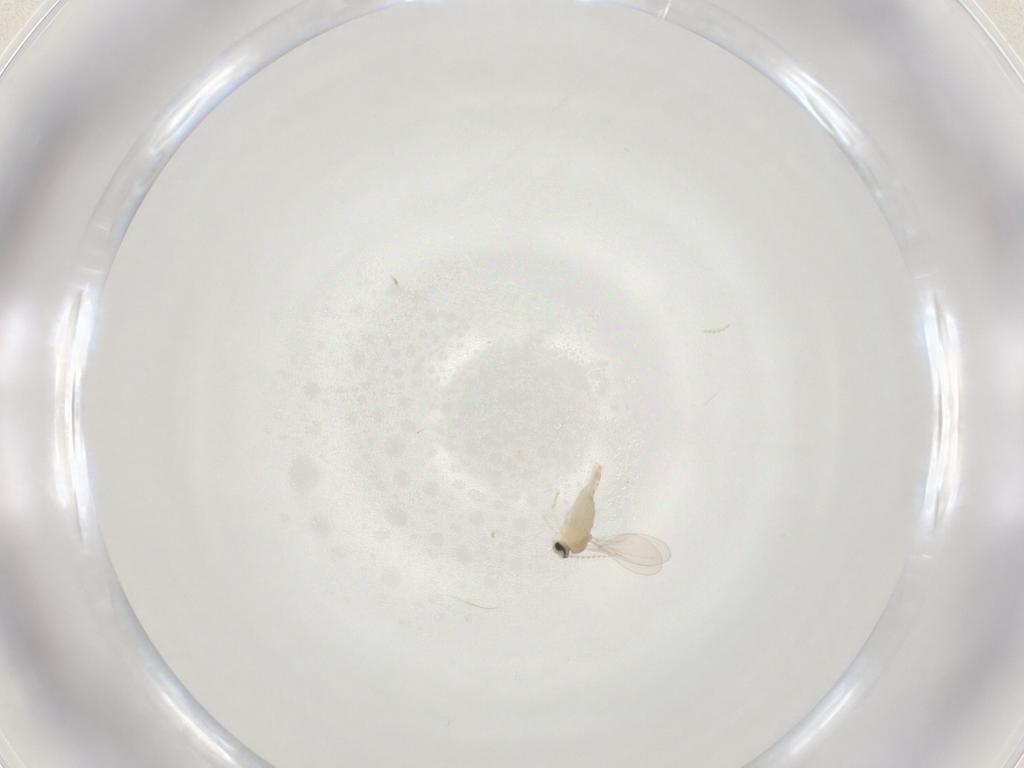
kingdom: Animalia
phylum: Arthropoda
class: Insecta
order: Diptera
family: Cecidomyiidae
